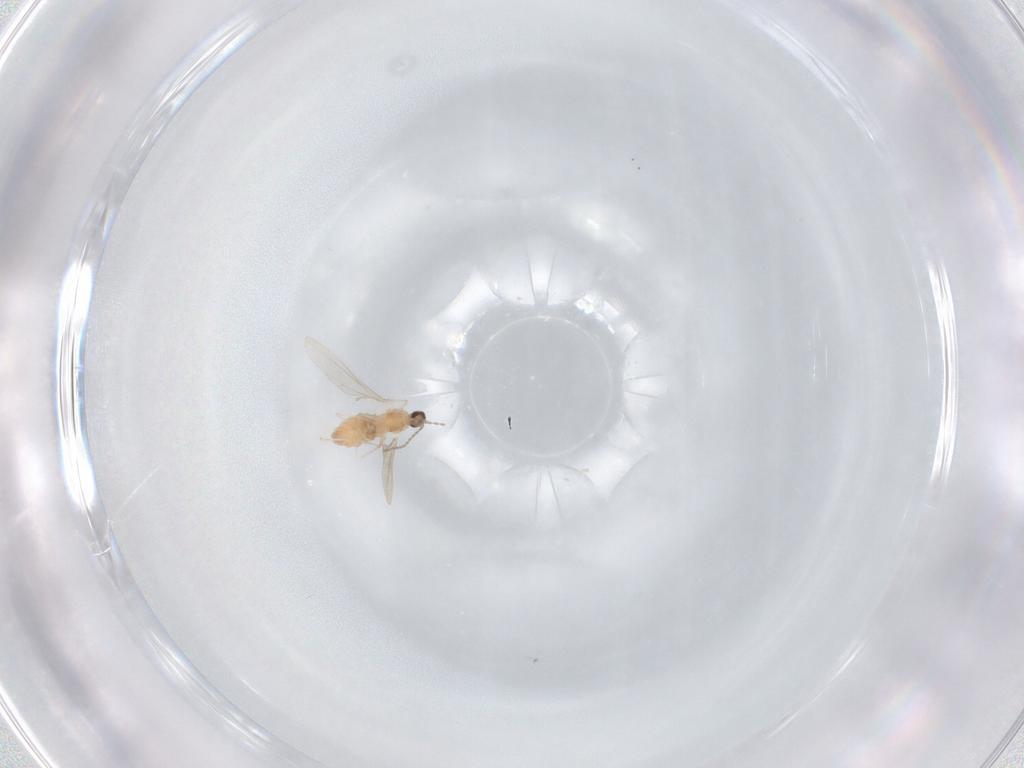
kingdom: Animalia
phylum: Arthropoda
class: Insecta
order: Diptera
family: Cecidomyiidae
